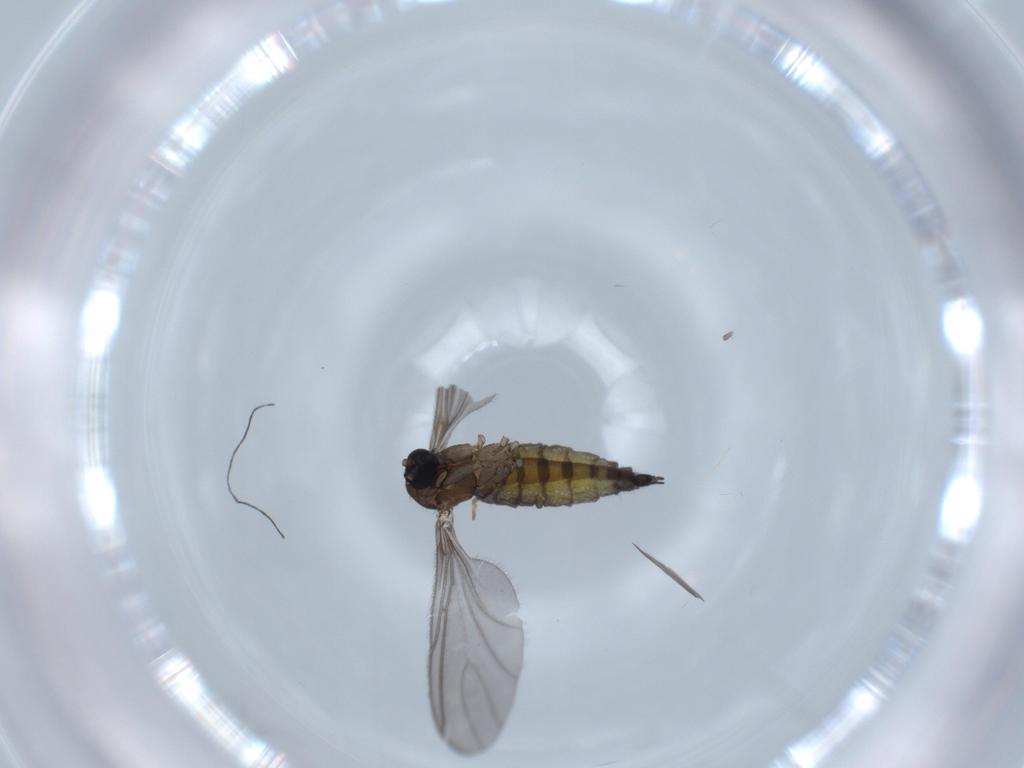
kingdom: Animalia
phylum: Arthropoda
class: Insecta
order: Diptera
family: Sciaridae
